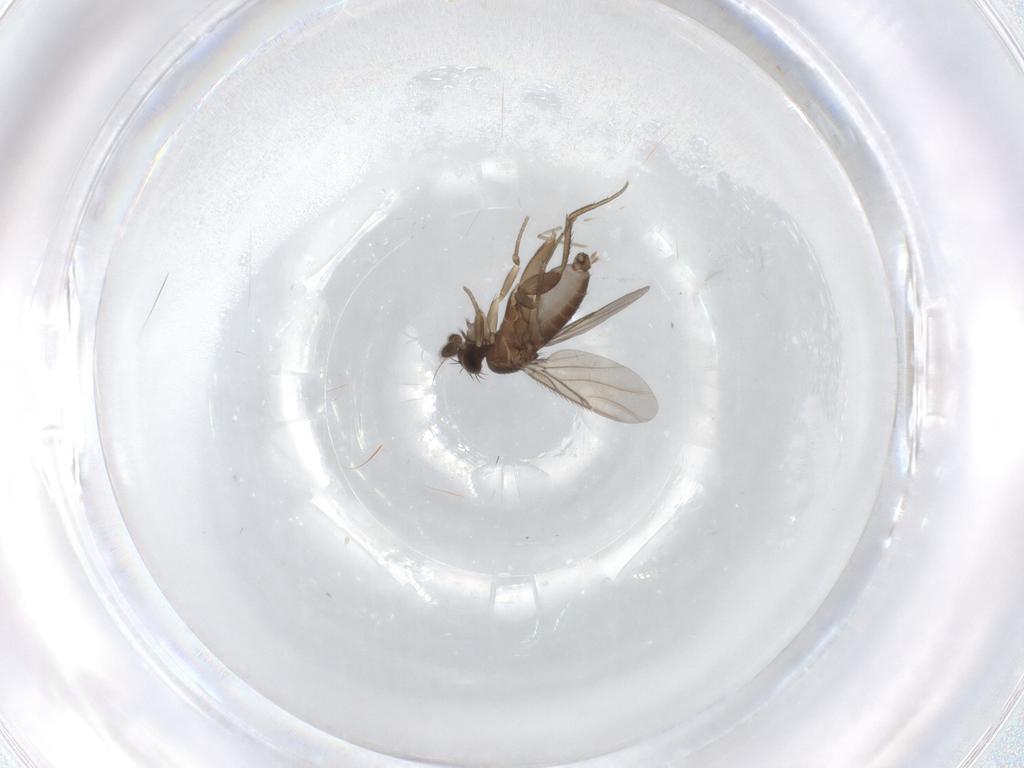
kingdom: Animalia
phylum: Arthropoda
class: Insecta
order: Diptera
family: Chironomidae
